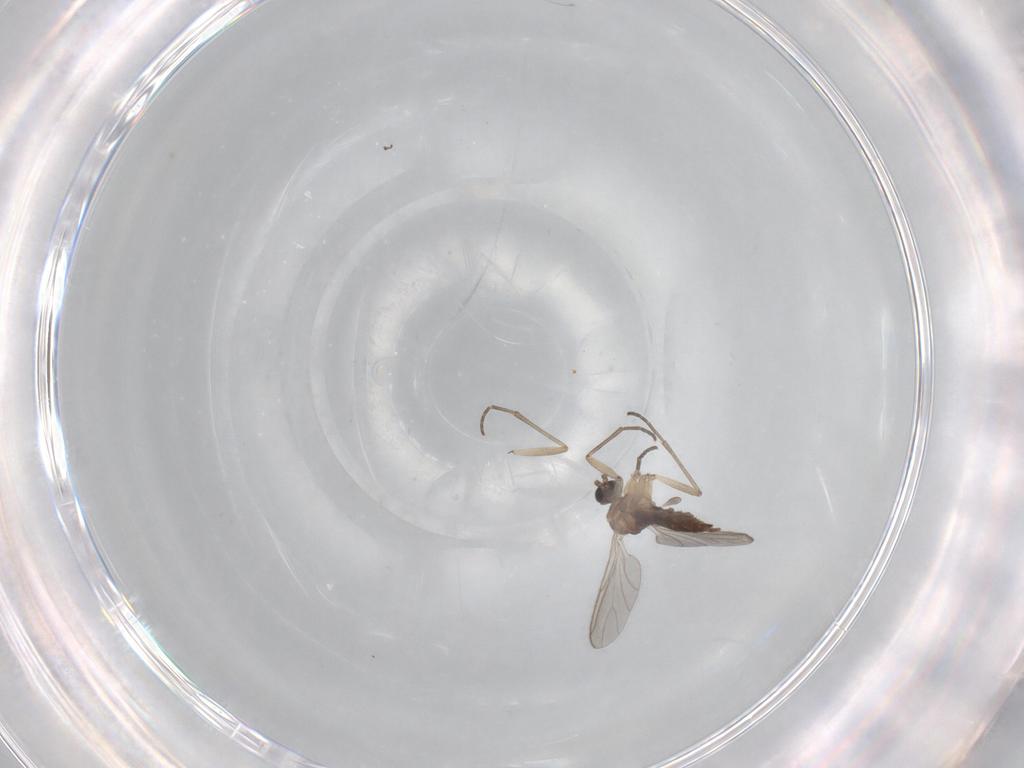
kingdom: Animalia
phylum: Arthropoda
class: Insecta
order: Diptera
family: Sciaridae
